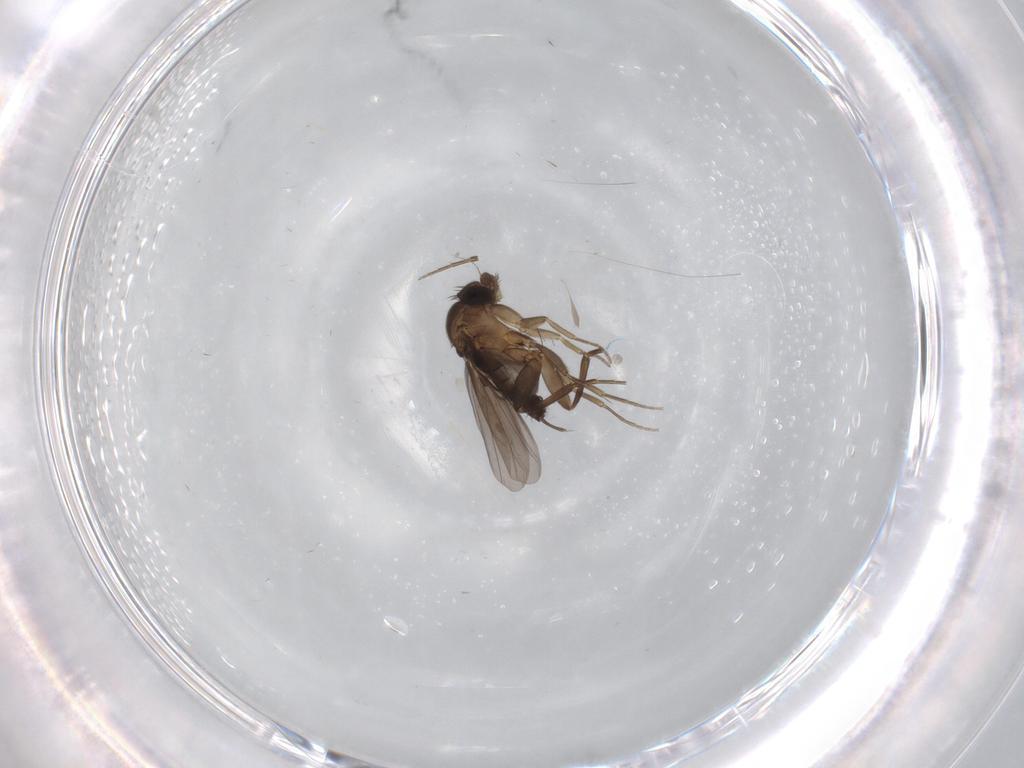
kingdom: Animalia
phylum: Arthropoda
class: Insecta
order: Diptera
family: Phoridae
